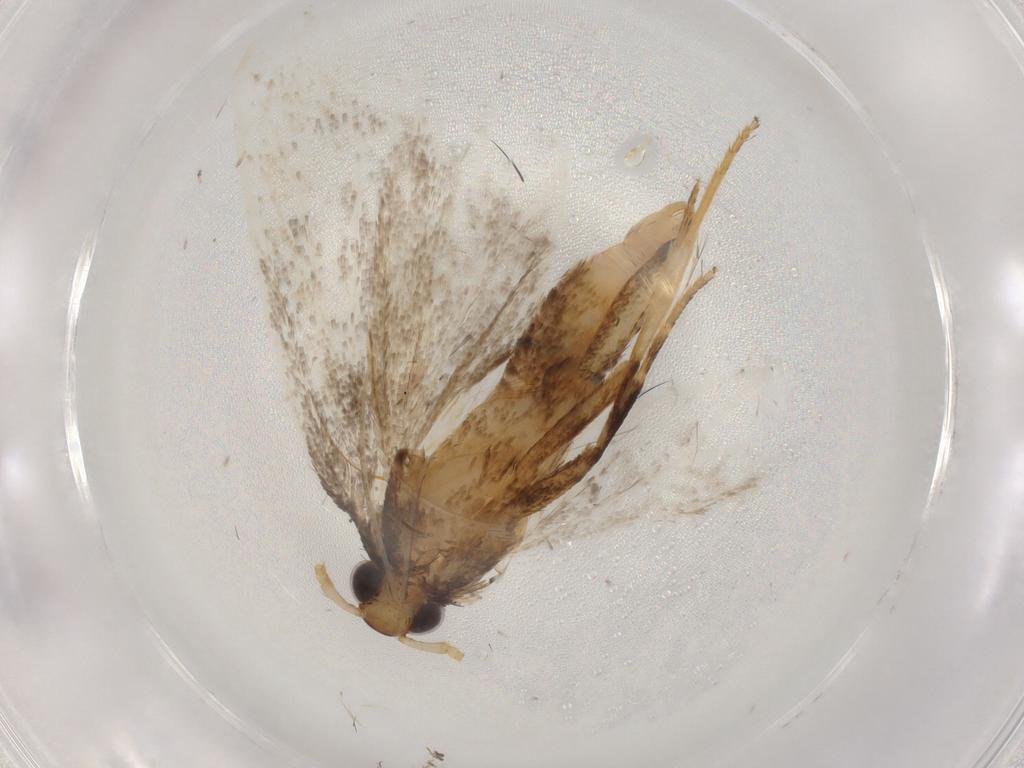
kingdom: Animalia
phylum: Arthropoda
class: Insecta
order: Lepidoptera
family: Lecithoceridae
